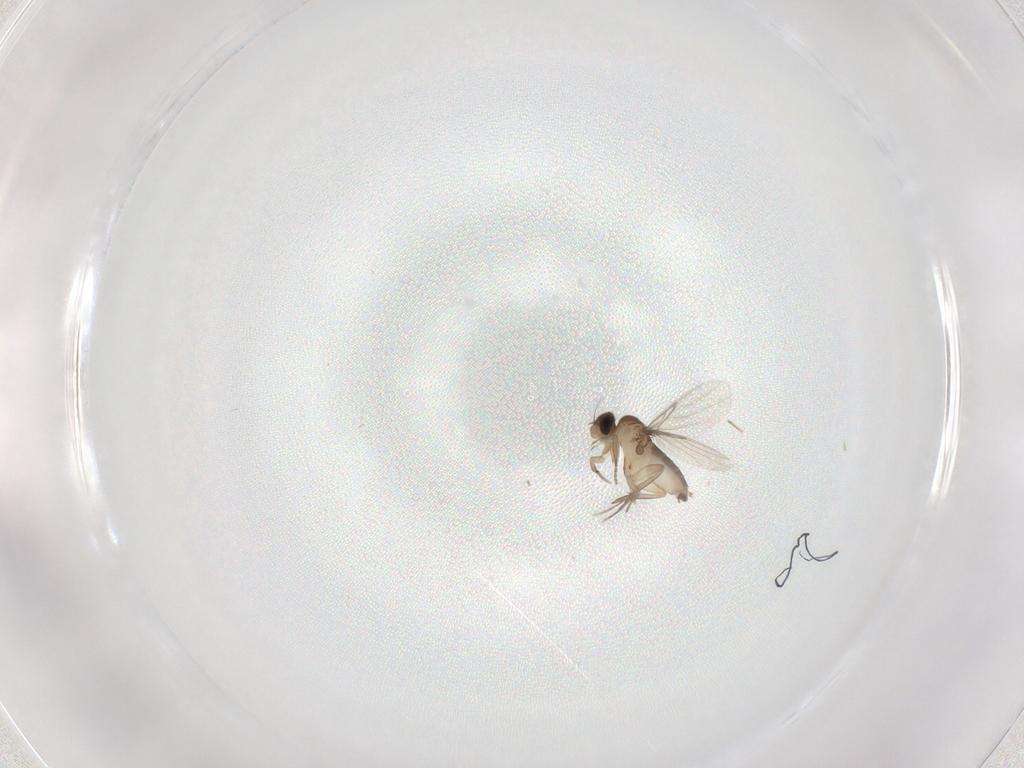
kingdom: Animalia
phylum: Arthropoda
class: Insecta
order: Diptera
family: Phoridae
